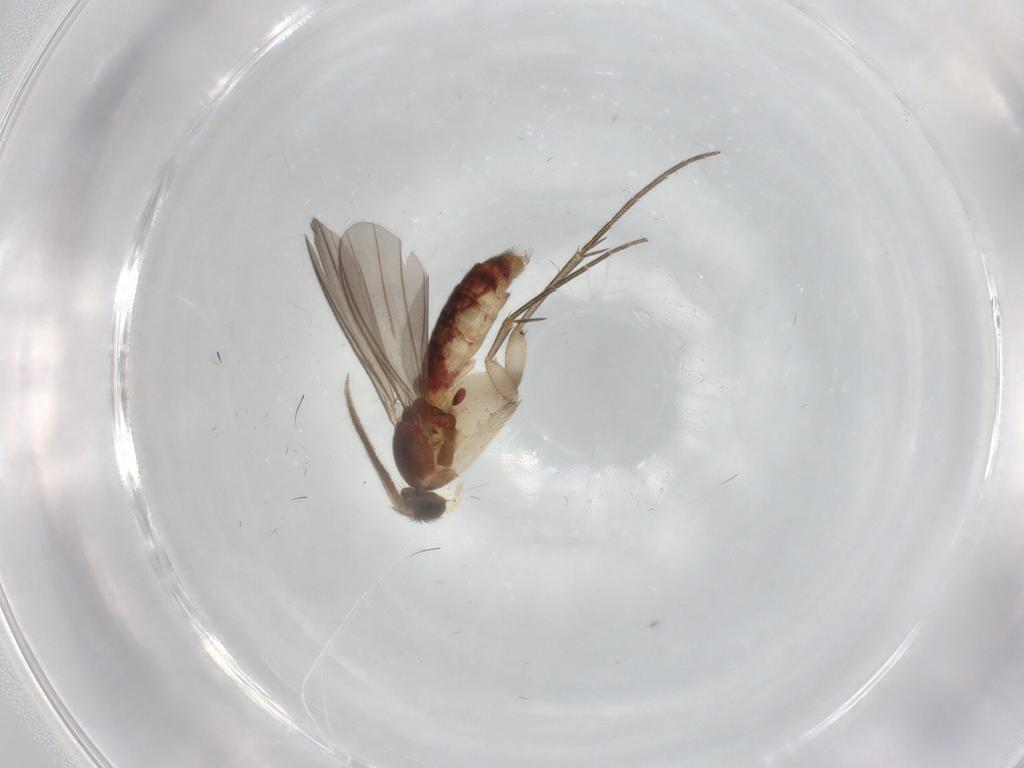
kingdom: Animalia
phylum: Arthropoda
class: Insecta
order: Diptera
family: Mycetophilidae
